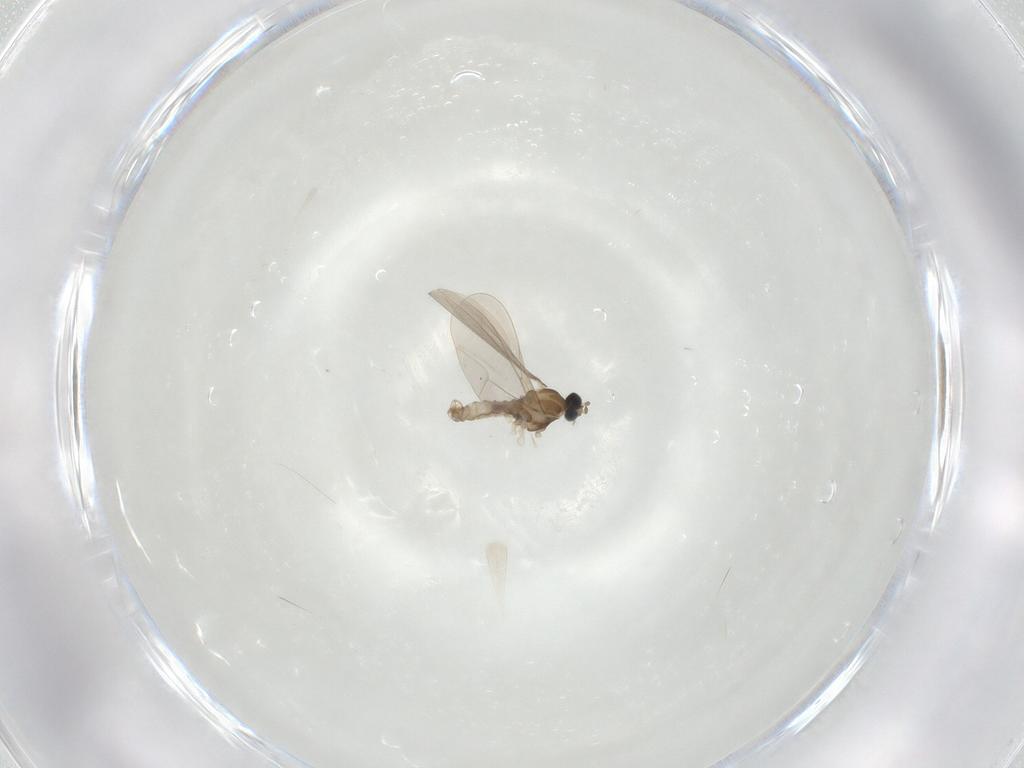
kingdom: Animalia
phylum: Arthropoda
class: Insecta
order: Diptera
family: Cecidomyiidae
